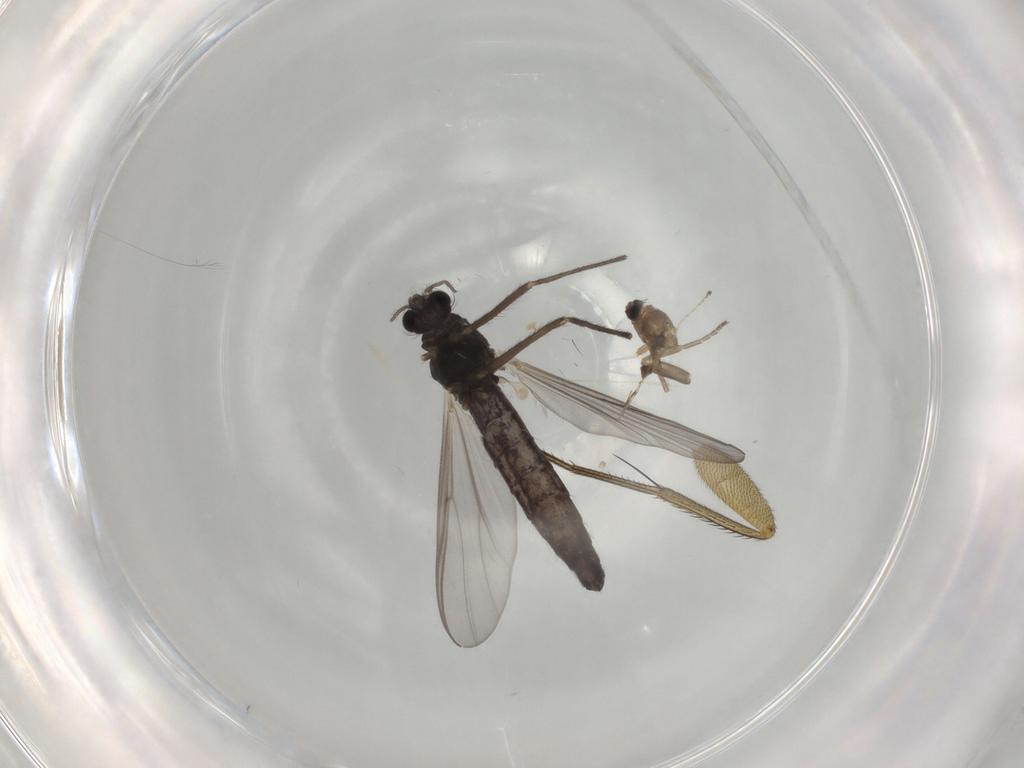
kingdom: Animalia
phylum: Arthropoda
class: Insecta
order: Diptera
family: Chironomidae
